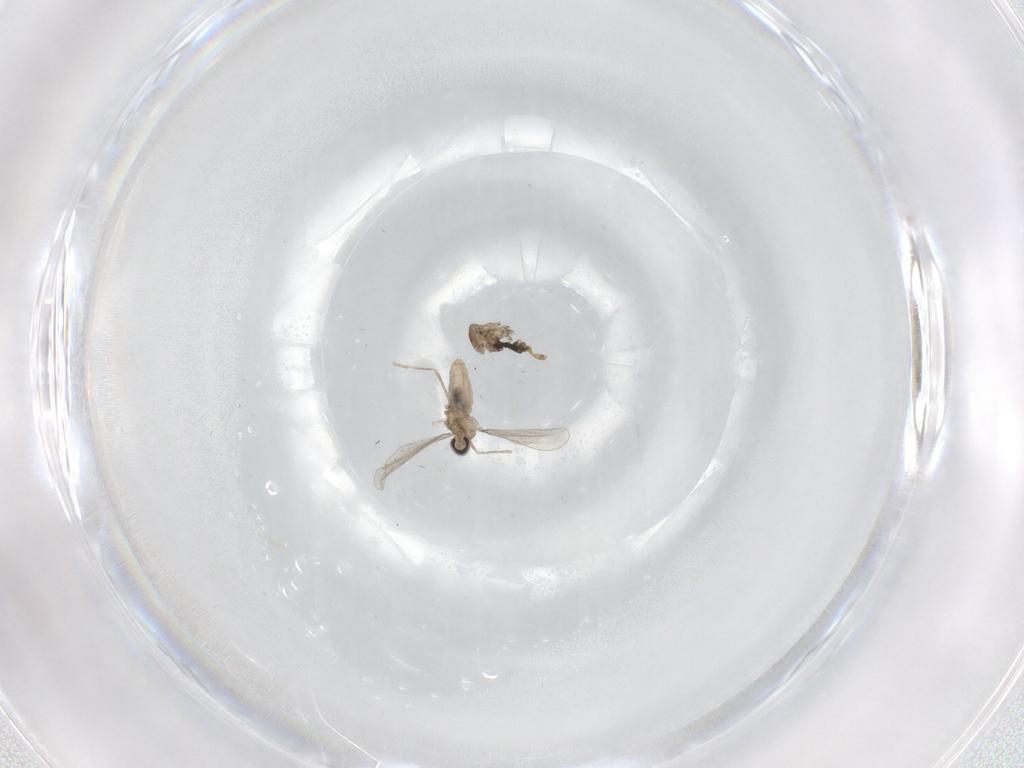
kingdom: Animalia
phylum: Arthropoda
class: Insecta
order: Diptera
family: Cecidomyiidae
